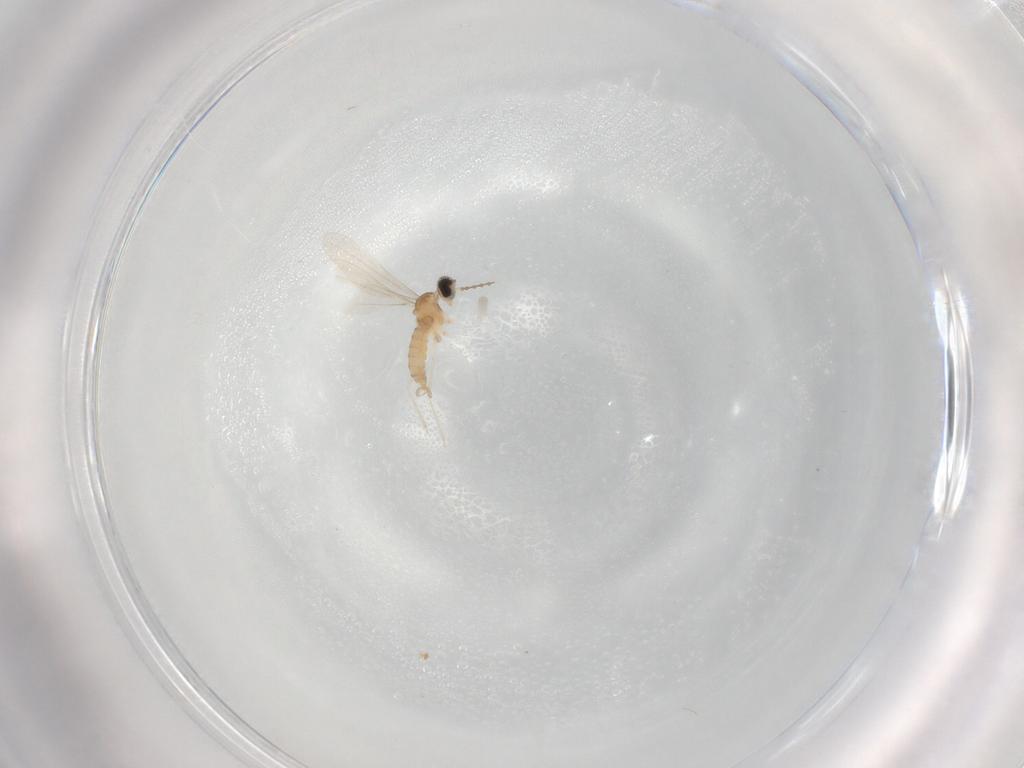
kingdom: Animalia
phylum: Arthropoda
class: Insecta
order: Diptera
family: Cecidomyiidae
